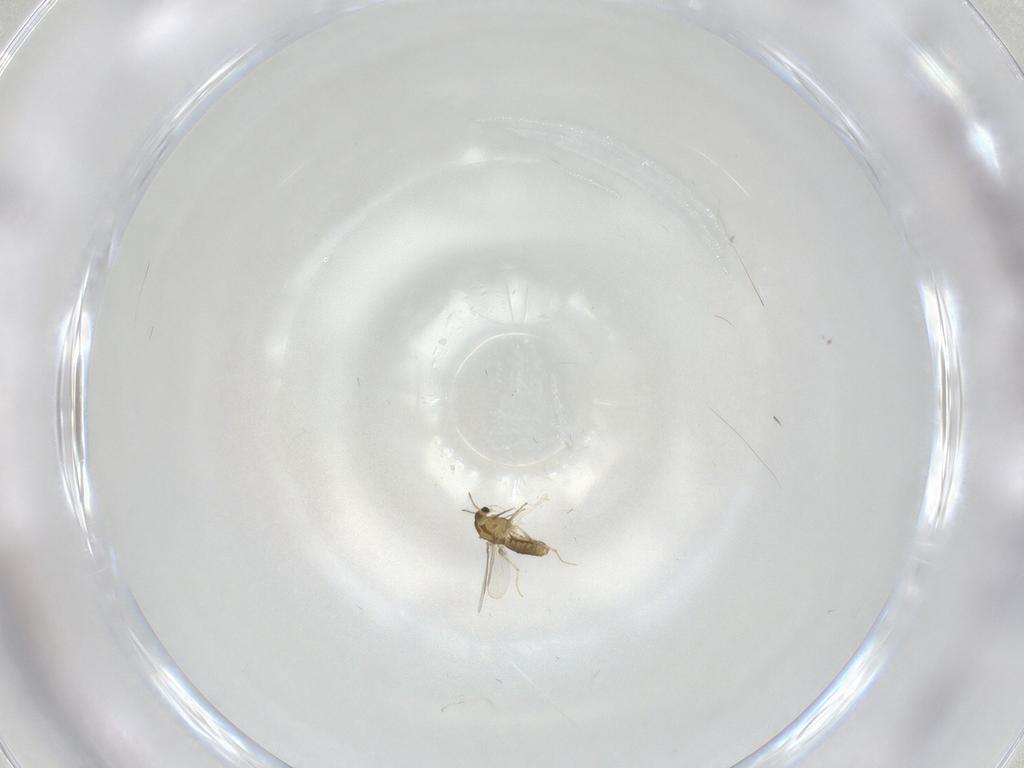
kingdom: Animalia
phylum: Arthropoda
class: Insecta
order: Diptera
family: Cecidomyiidae
